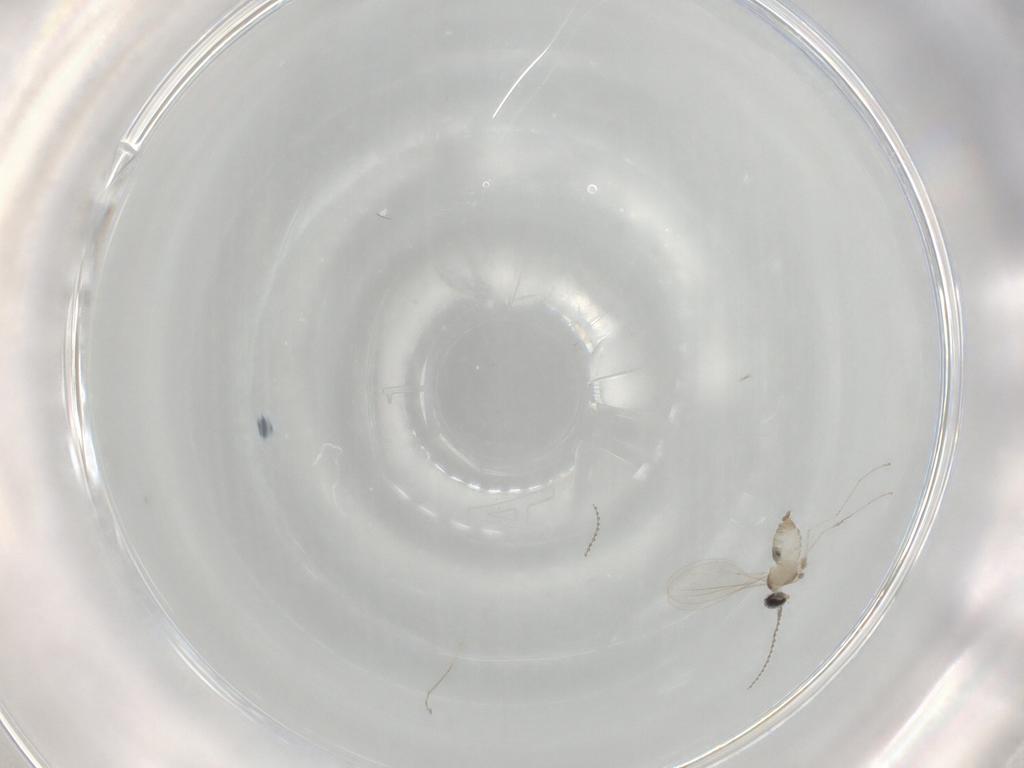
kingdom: Animalia
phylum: Arthropoda
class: Insecta
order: Diptera
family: Cecidomyiidae
